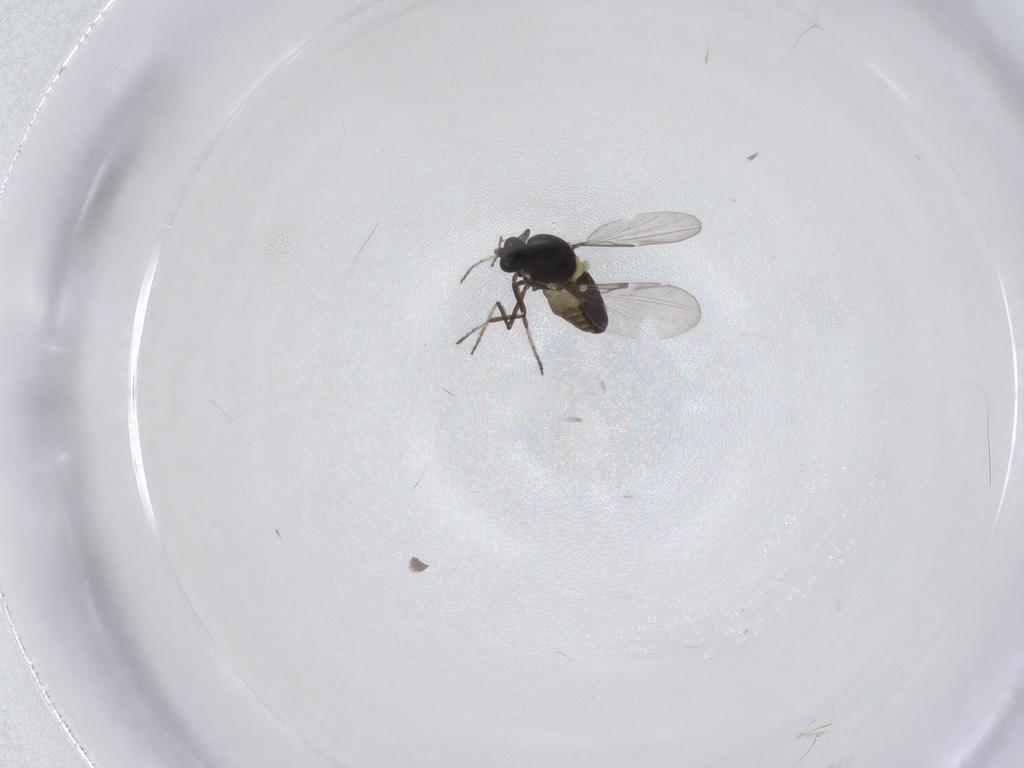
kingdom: Animalia
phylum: Arthropoda
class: Insecta
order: Diptera
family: Ceratopogonidae
